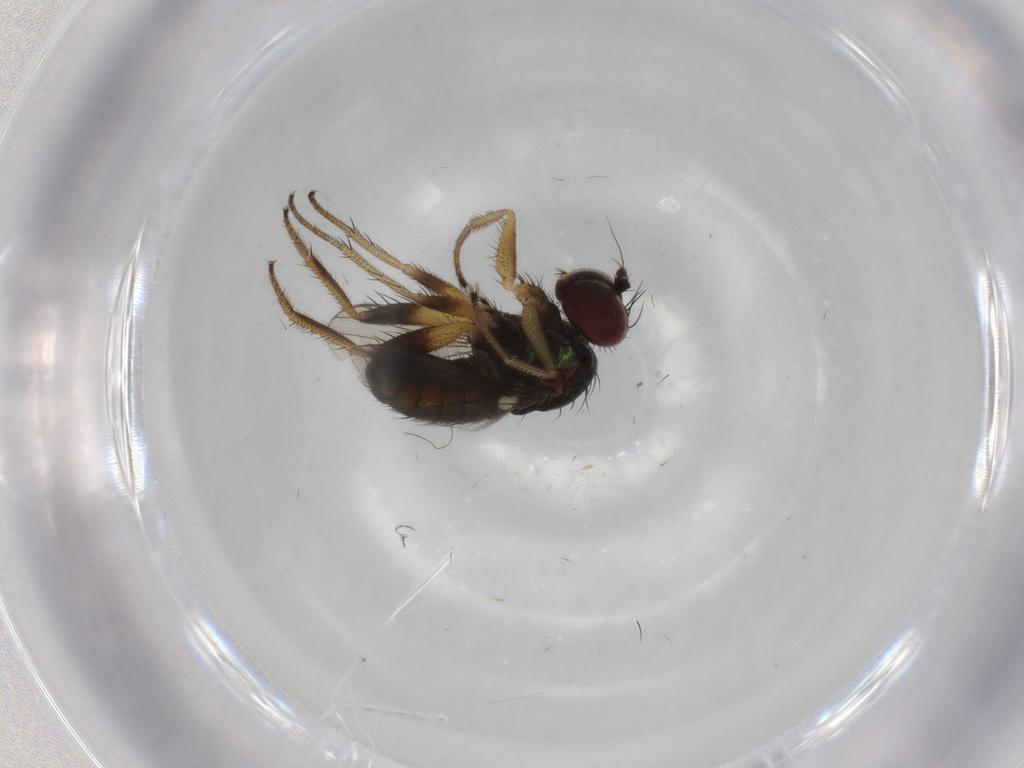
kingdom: Animalia
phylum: Arthropoda
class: Insecta
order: Diptera
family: Dolichopodidae
